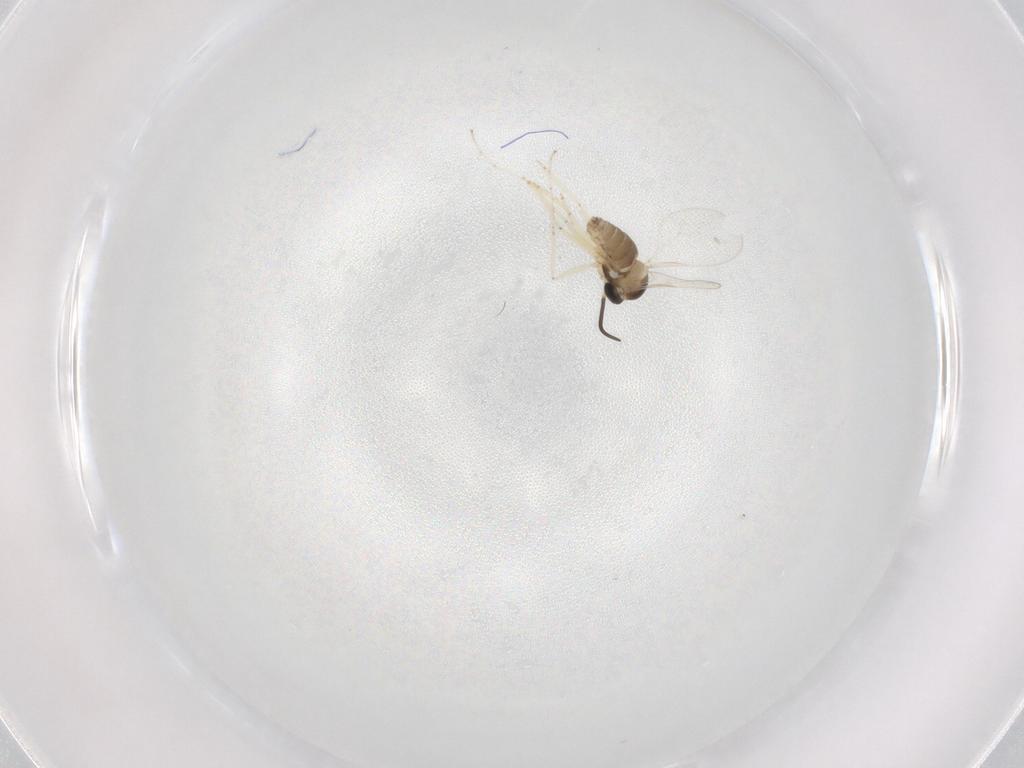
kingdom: Animalia
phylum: Arthropoda
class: Insecta
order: Diptera
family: Cecidomyiidae
